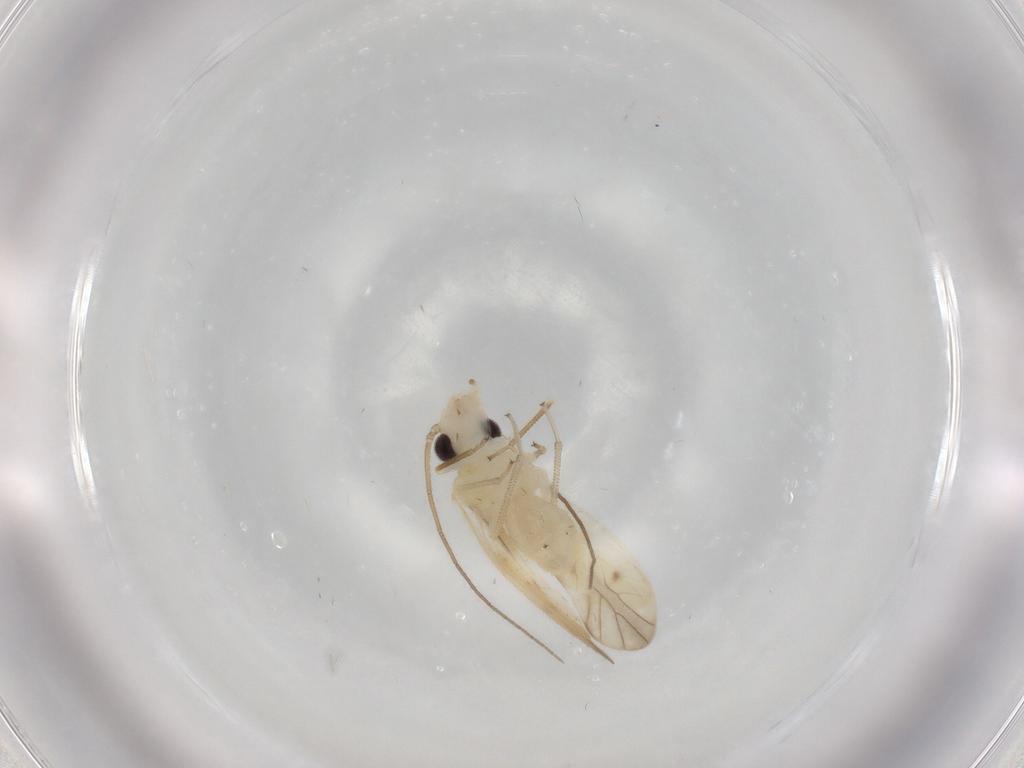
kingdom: Animalia
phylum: Arthropoda
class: Insecta
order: Psocodea
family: Caeciliusidae
